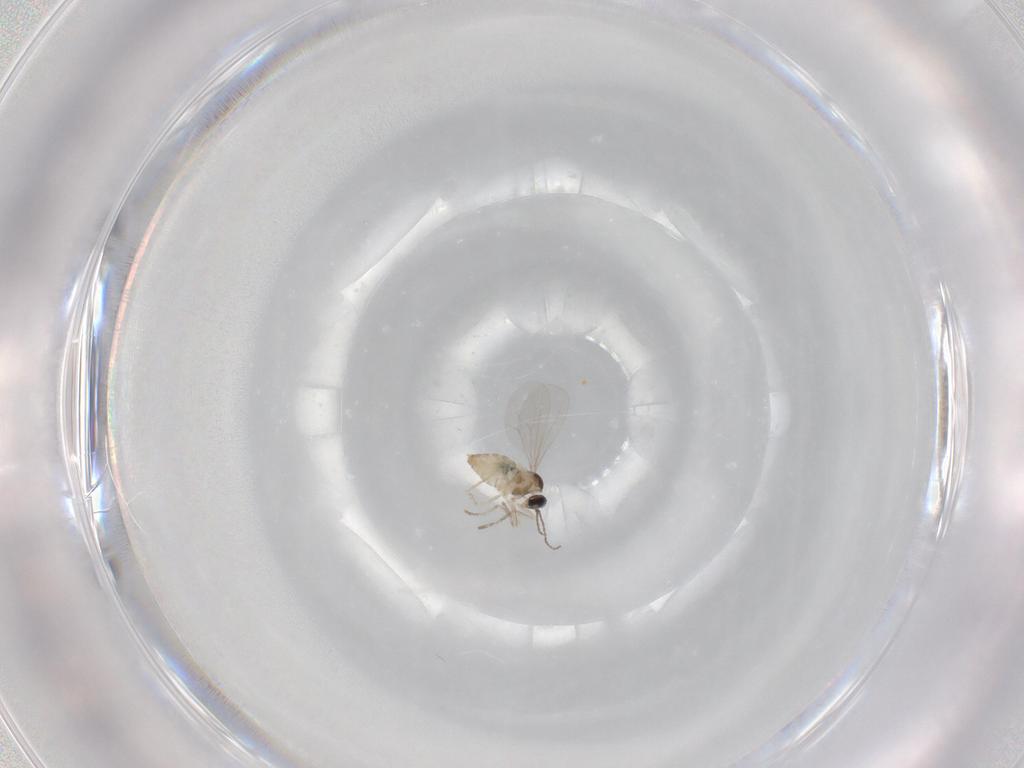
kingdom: Animalia
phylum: Arthropoda
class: Insecta
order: Diptera
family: Cecidomyiidae
